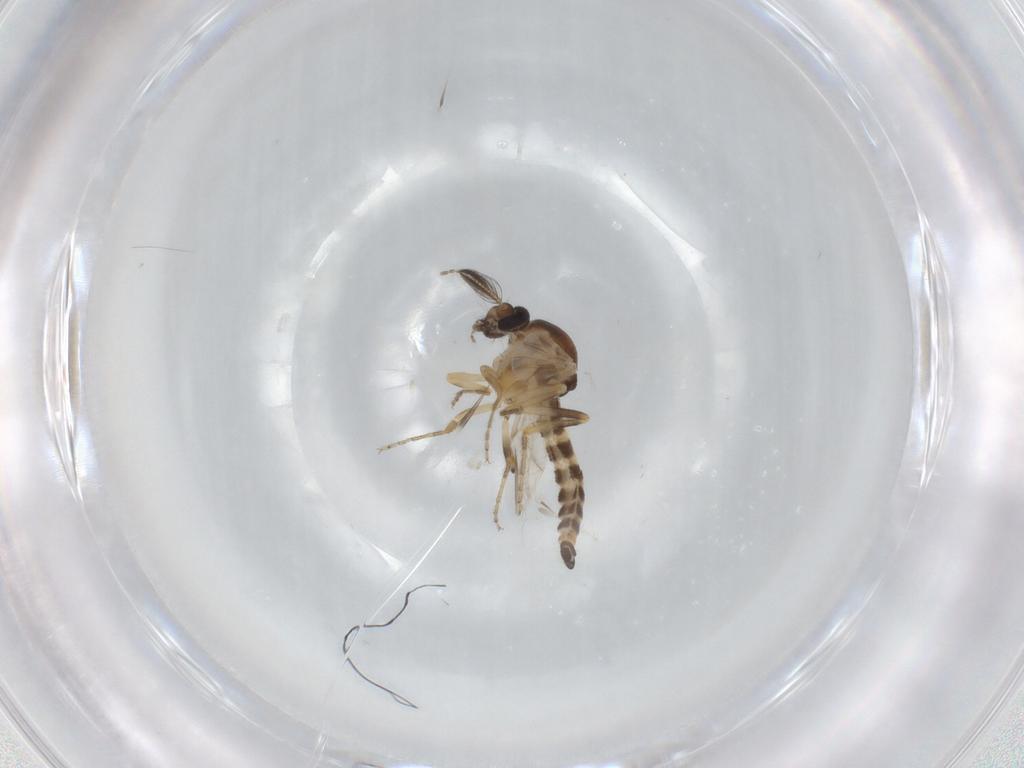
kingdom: Animalia
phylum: Arthropoda
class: Insecta
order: Diptera
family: Ceratopogonidae
